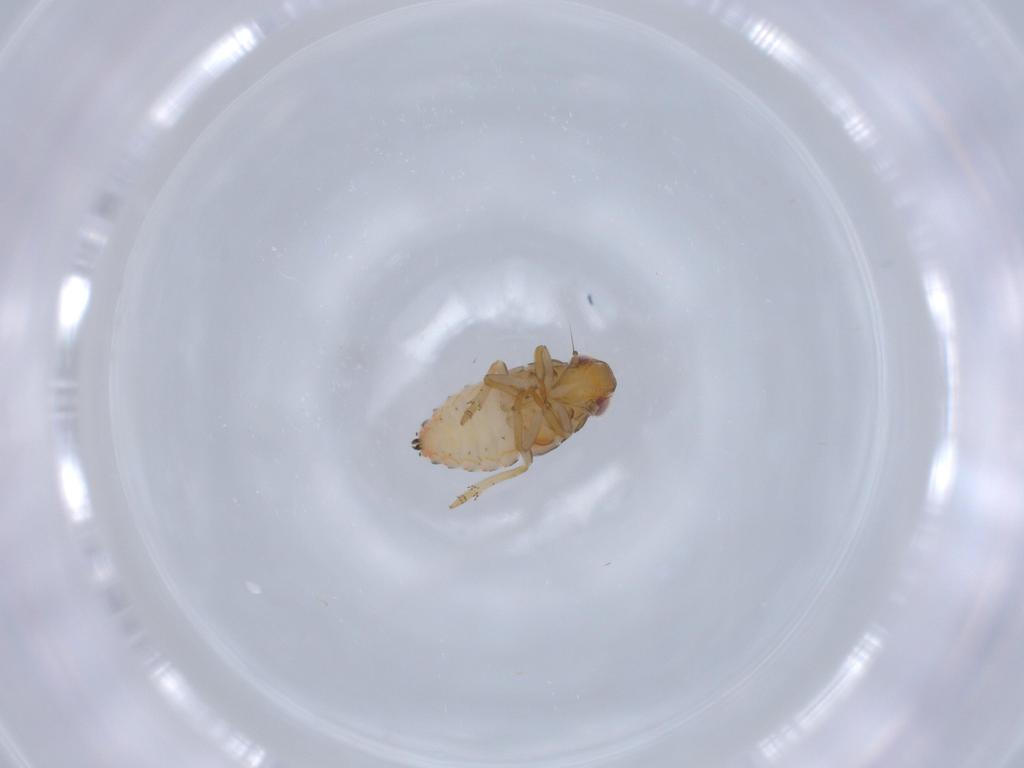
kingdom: Animalia
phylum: Arthropoda
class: Insecta
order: Hemiptera
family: Issidae
